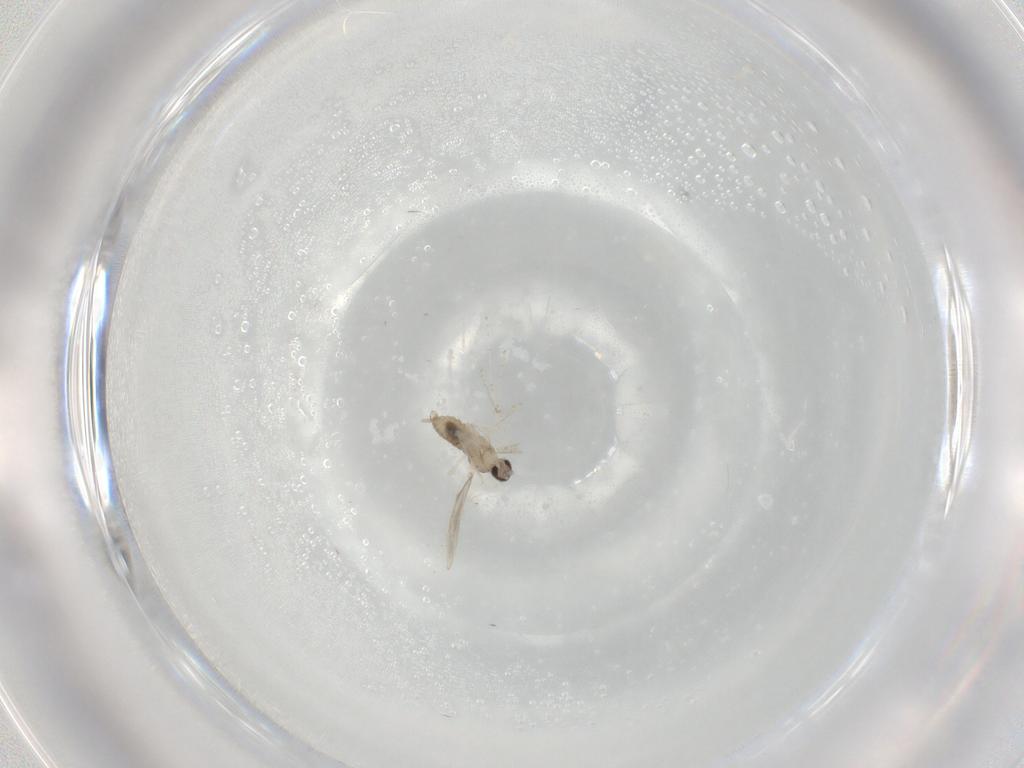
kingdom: Animalia
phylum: Arthropoda
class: Insecta
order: Diptera
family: Cecidomyiidae
